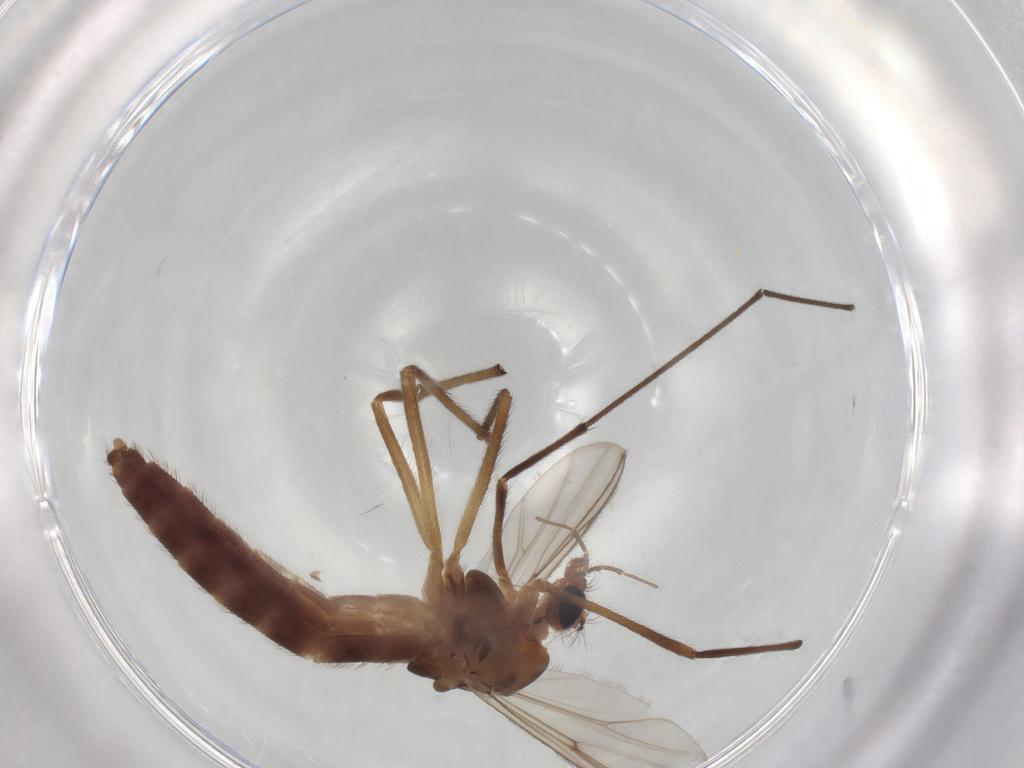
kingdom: Animalia
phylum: Arthropoda
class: Insecta
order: Diptera
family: Chironomidae
